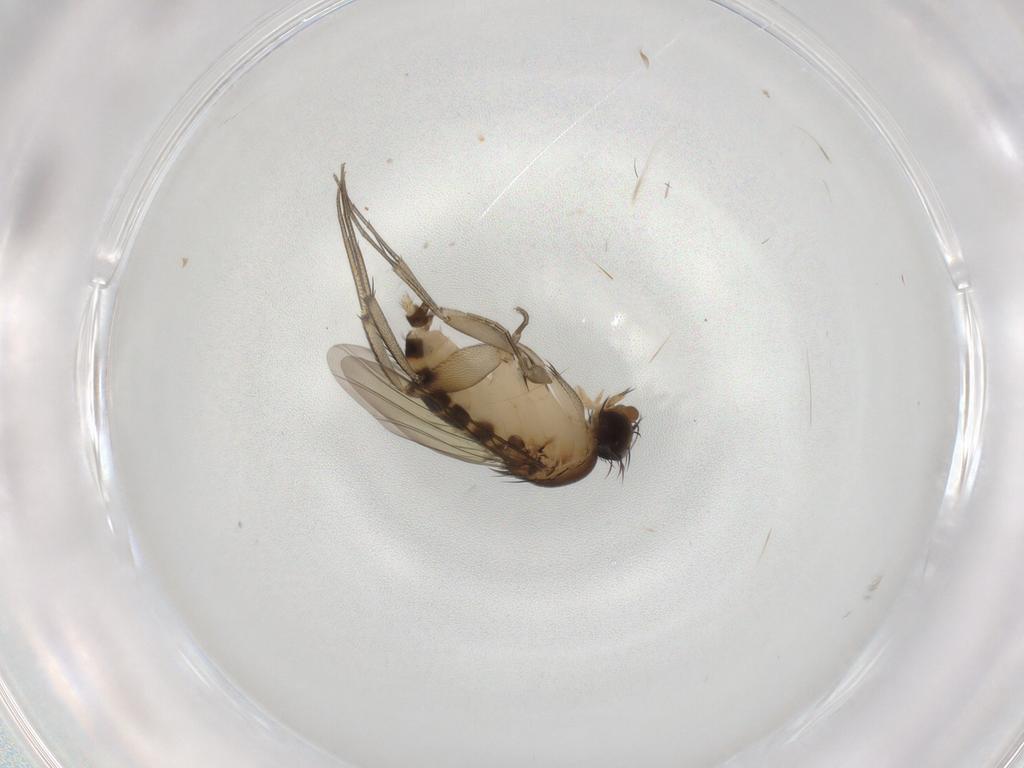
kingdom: Animalia
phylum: Arthropoda
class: Insecta
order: Diptera
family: Phoridae
